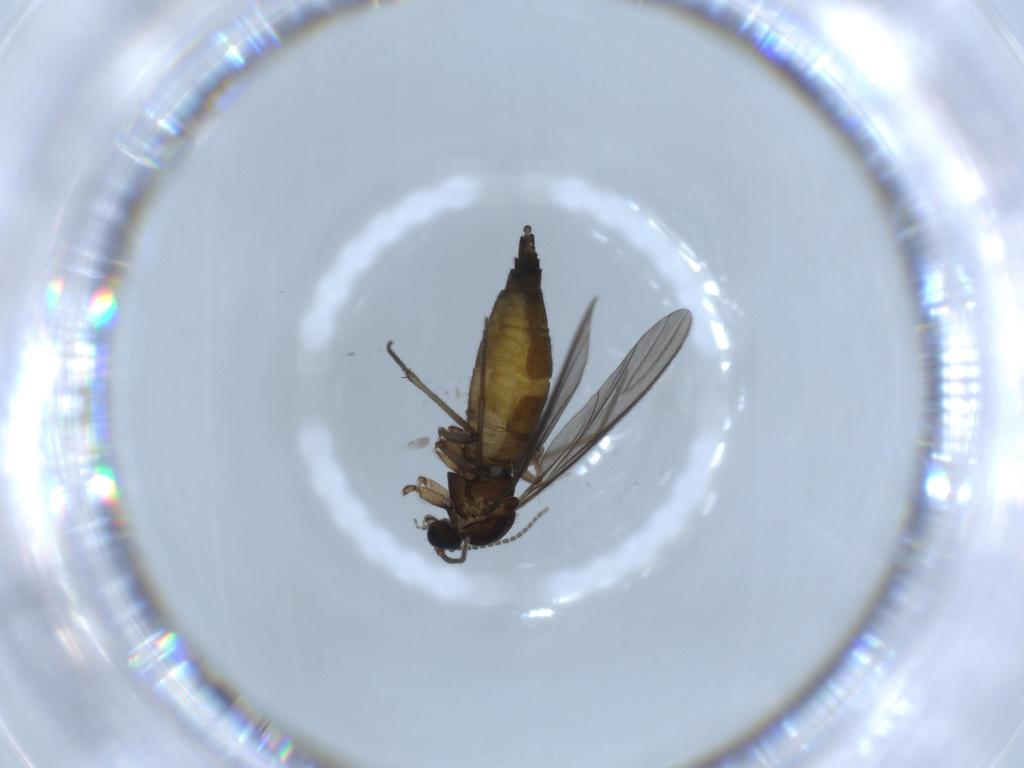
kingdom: Animalia
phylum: Arthropoda
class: Insecta
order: Diptera
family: Sciaridae
